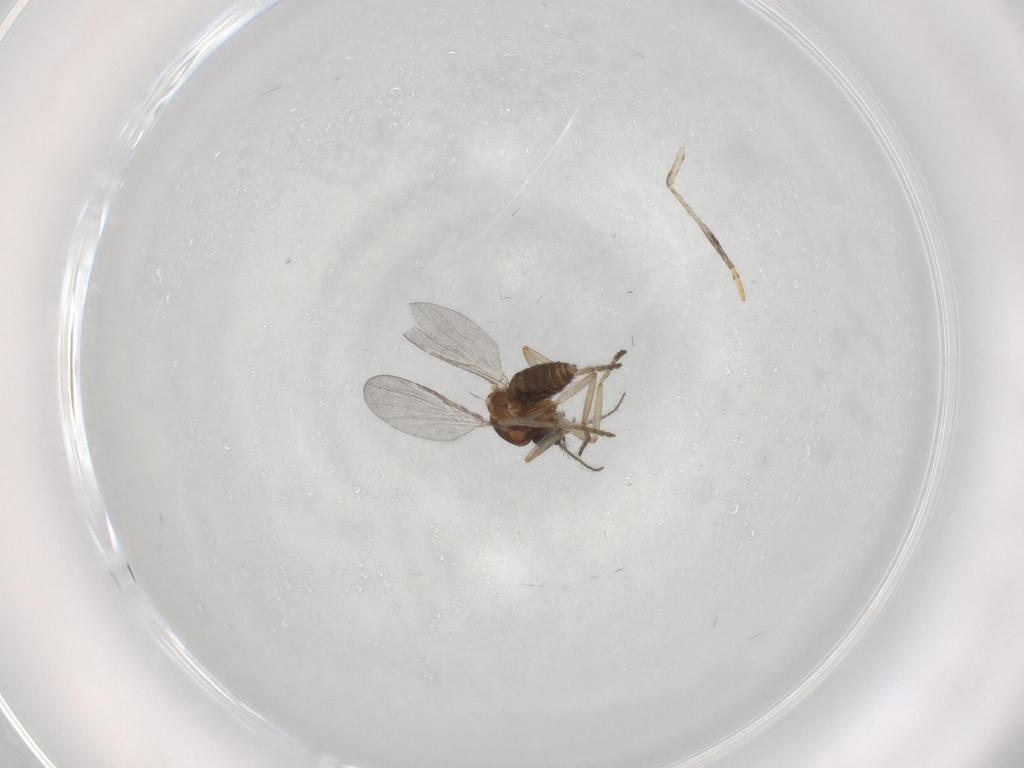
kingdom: Animalia
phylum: Arthropoda
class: Insecta
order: Diptera
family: Psychodidae
